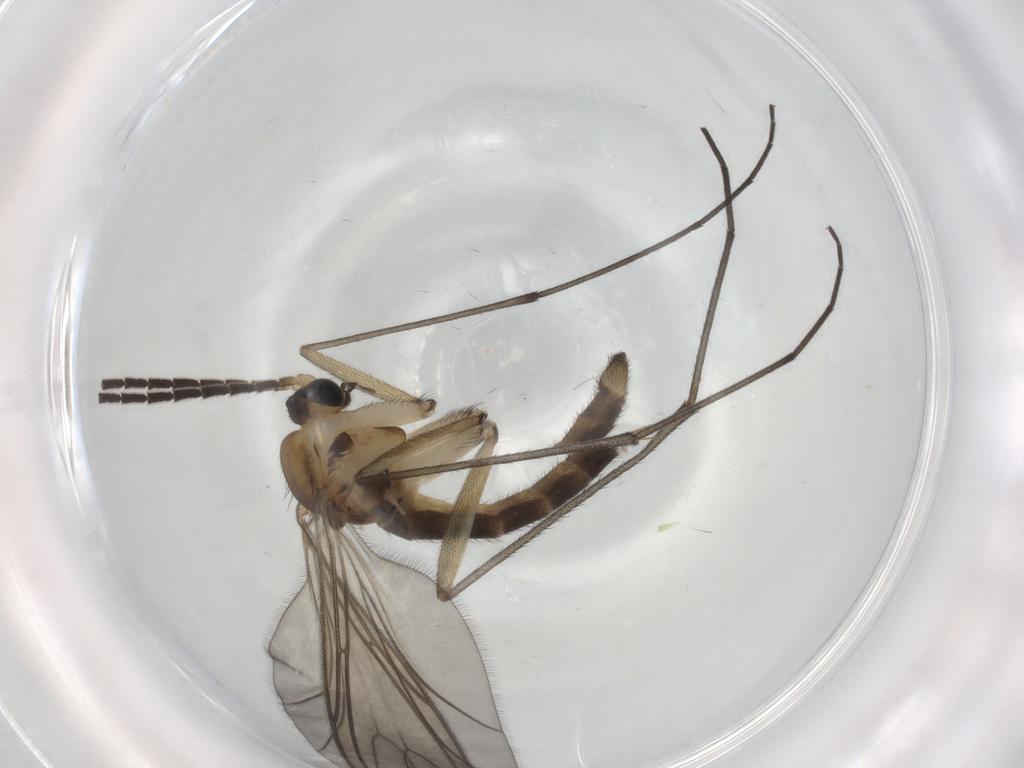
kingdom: Animalia
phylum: Arthropoda
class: Insecta
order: Diptera
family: Sciaridae
